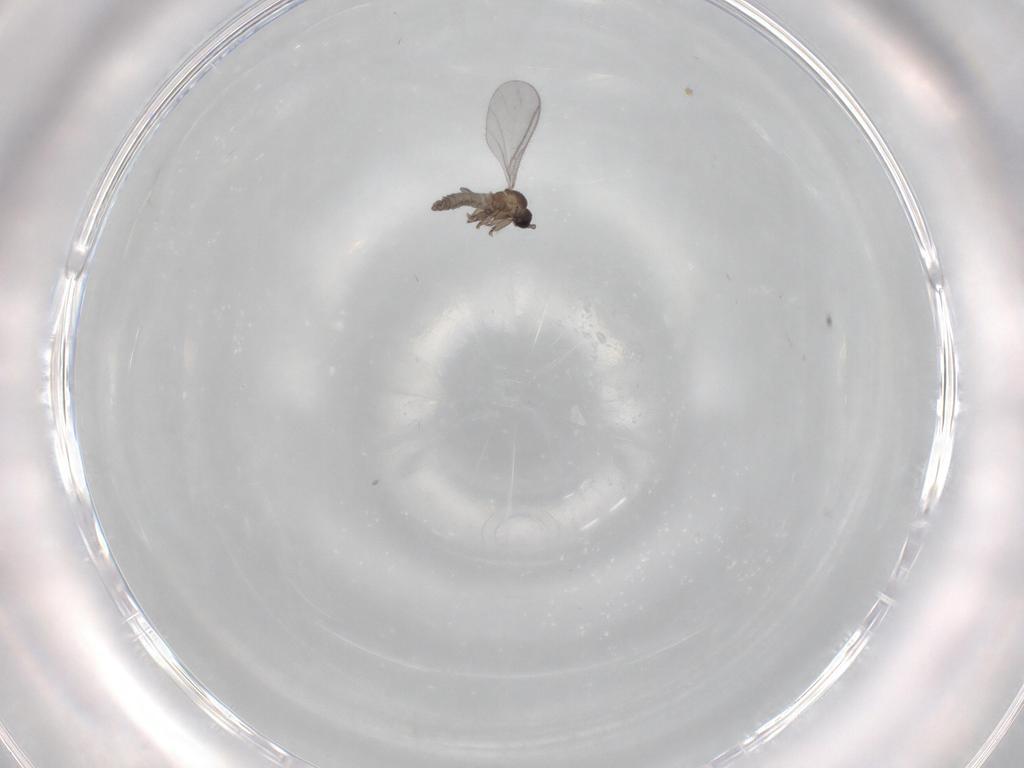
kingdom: Animalia
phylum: Arthropoda
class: Insecta
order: Diptera
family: Sciaridae
